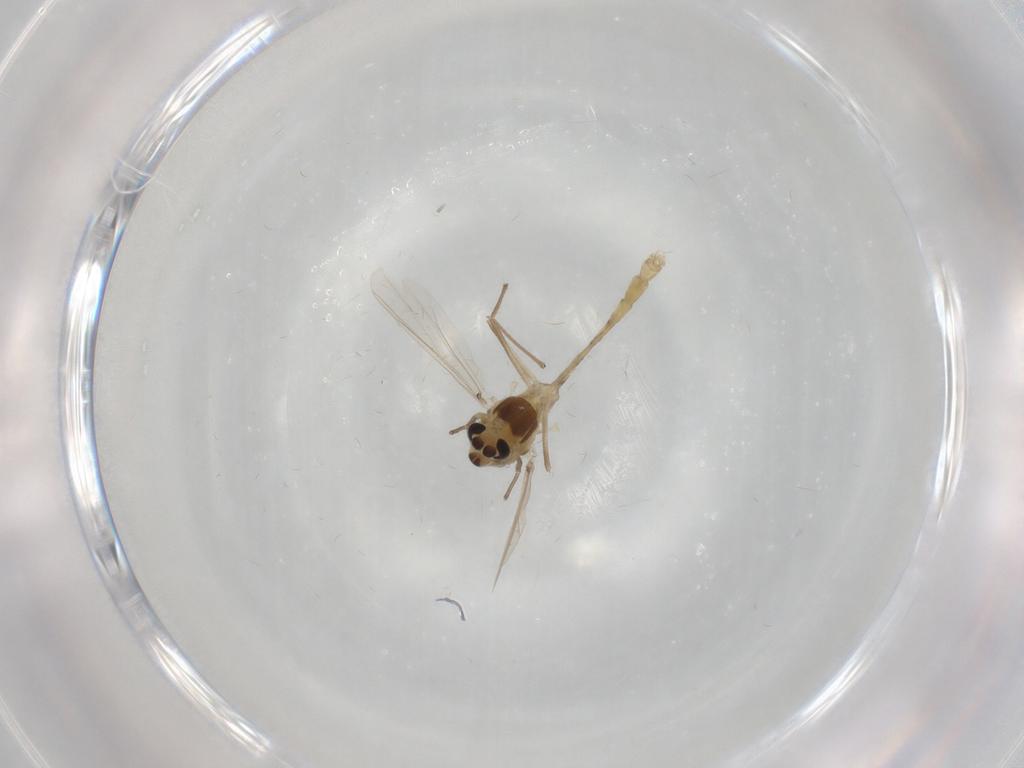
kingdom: Animalia
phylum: Arthropoda
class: Insecta
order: Diptera
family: Chironomidae
